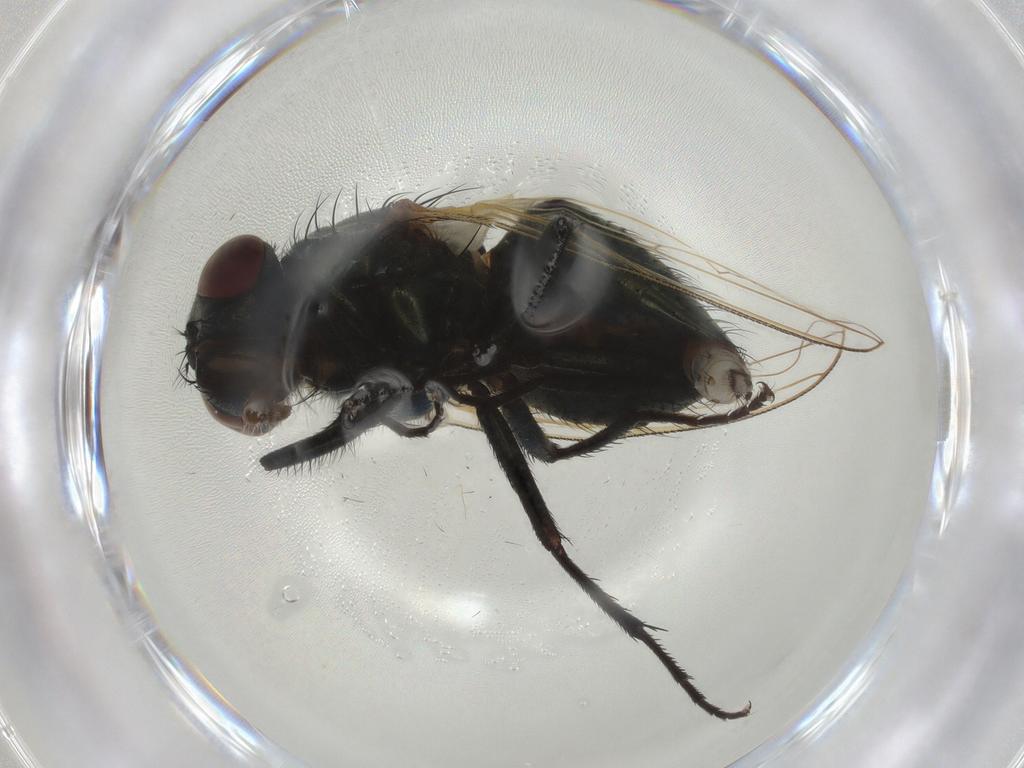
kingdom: Animalia
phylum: Arthropoda
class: Insecta
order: Diptera
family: Muscidae
